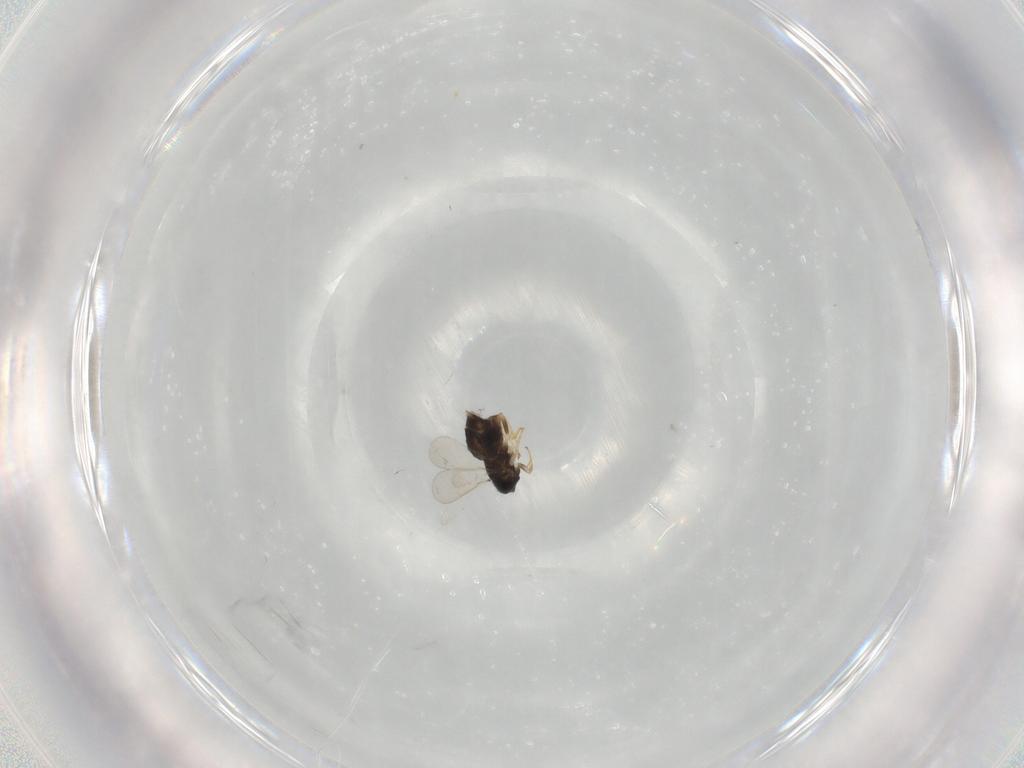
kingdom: Animalia
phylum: Arthropoda
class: Insecta
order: Hymenoptera
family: Aphelinidae
